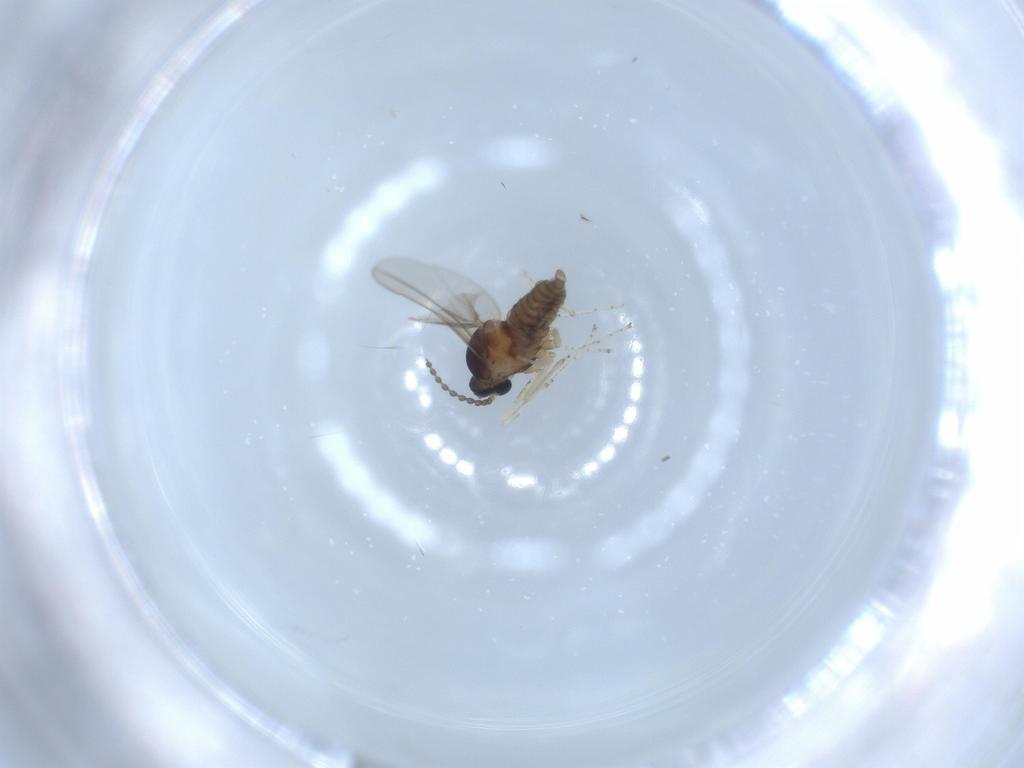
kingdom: Animalia
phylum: Arthropoda
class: Insecta
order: Diptera
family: Cecidomyiidae
